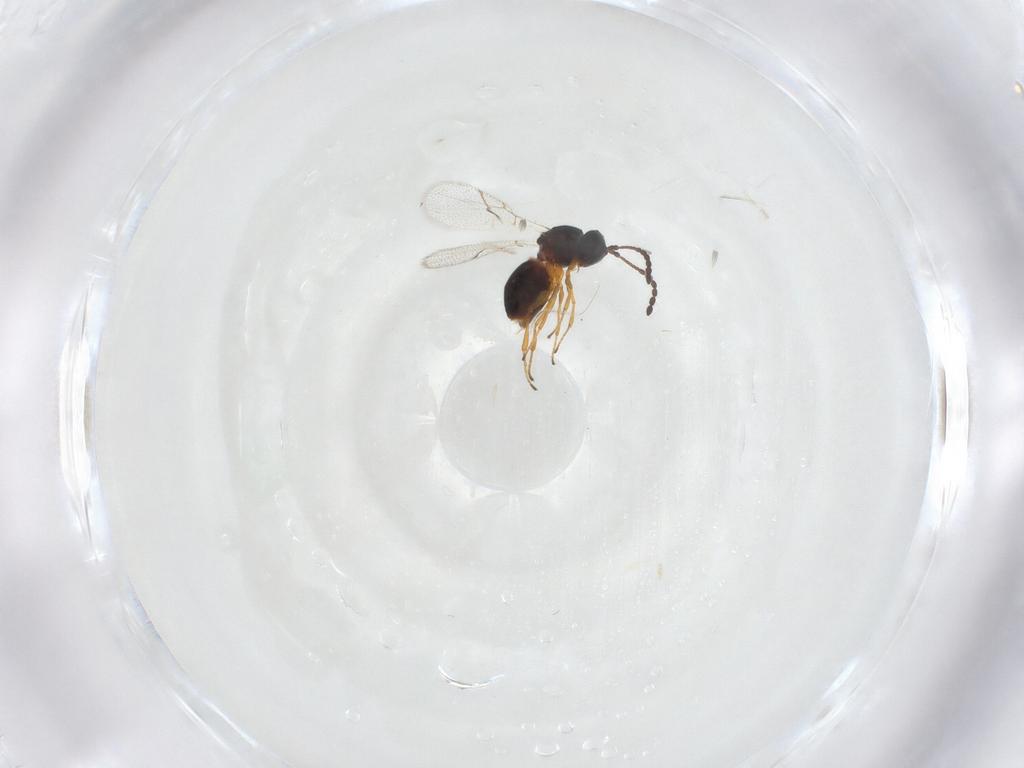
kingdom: Animalia
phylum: Arthropoda
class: Insecta
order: Hymenoptera
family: Figitidae
